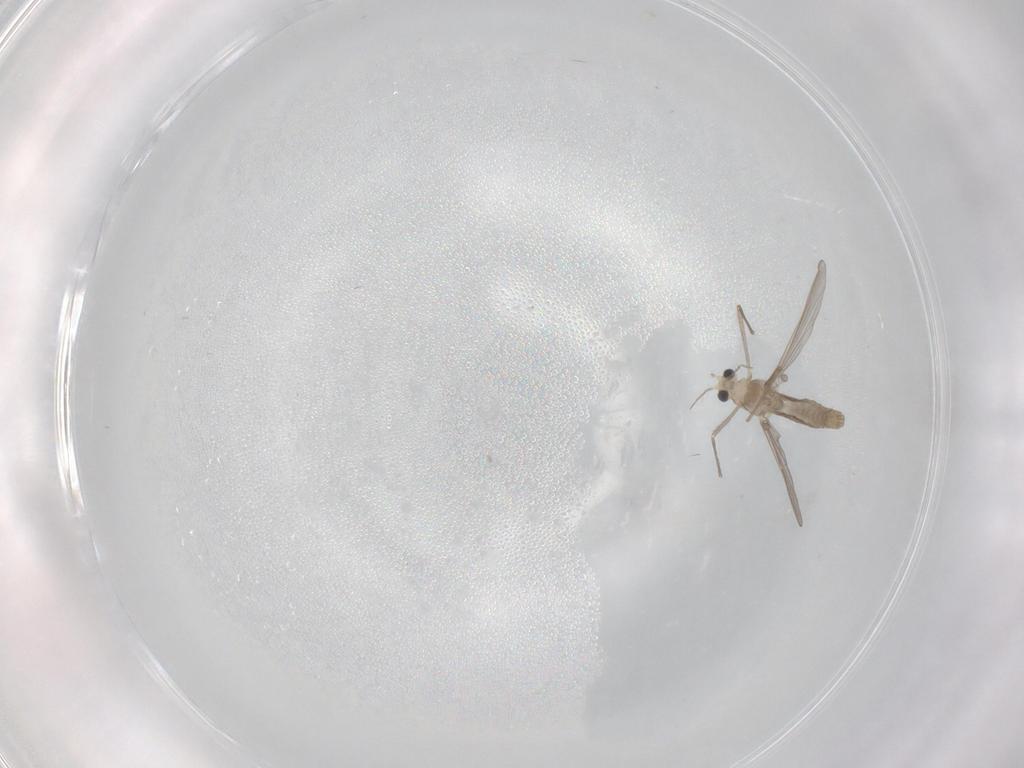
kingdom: Animalia
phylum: Arthropoda
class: Insecta
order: Diptera
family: Chironomidae
